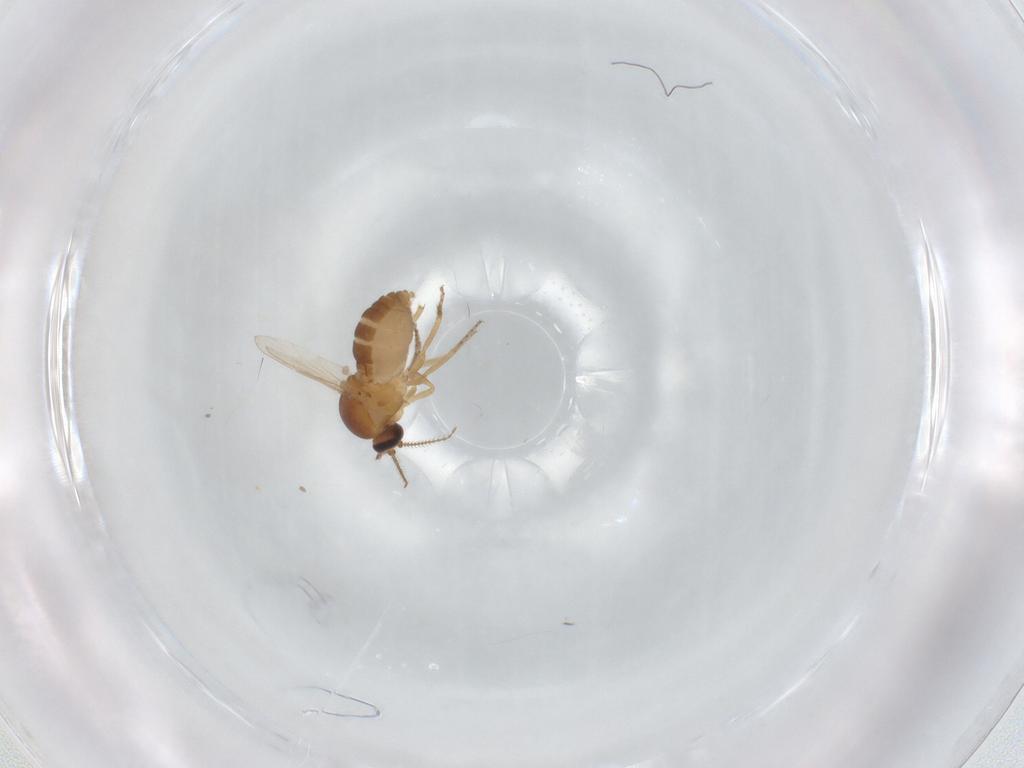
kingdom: Animalia
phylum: Arthropoda
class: Insecta
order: Diptera
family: Ceratopogonidae
